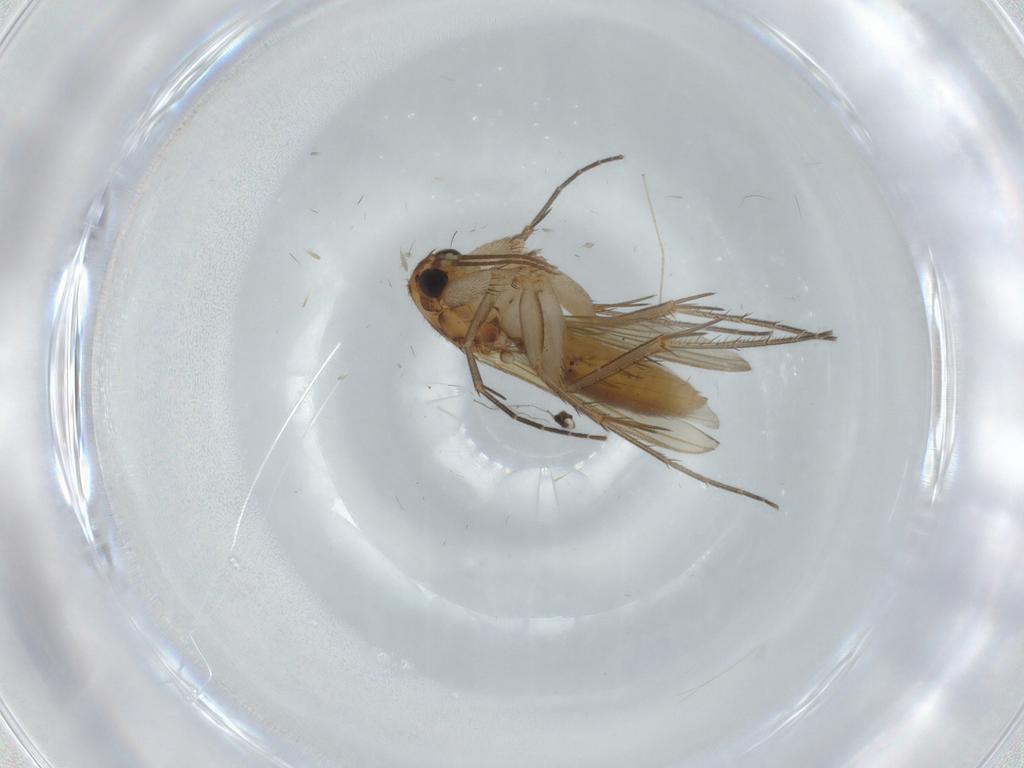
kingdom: Animalia
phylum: Arthropoda
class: Insecta
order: Diptera
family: Mycetophilidae
